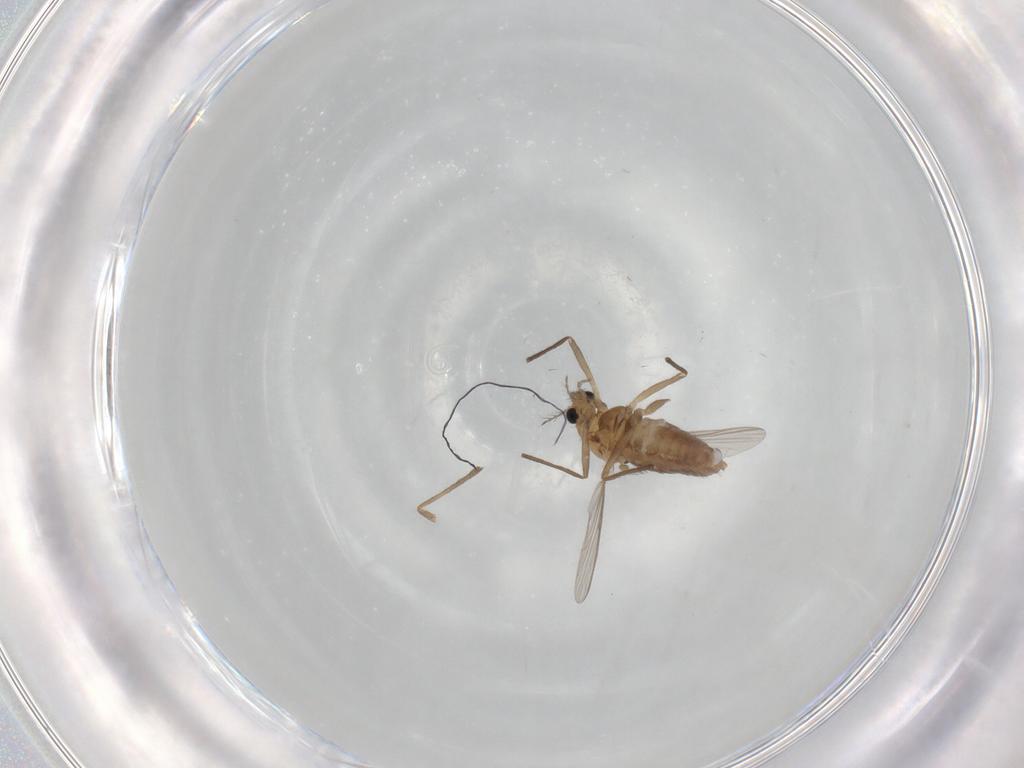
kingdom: Animalia
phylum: Arthropoda
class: Insecta
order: Diptera
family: Chironomidae
